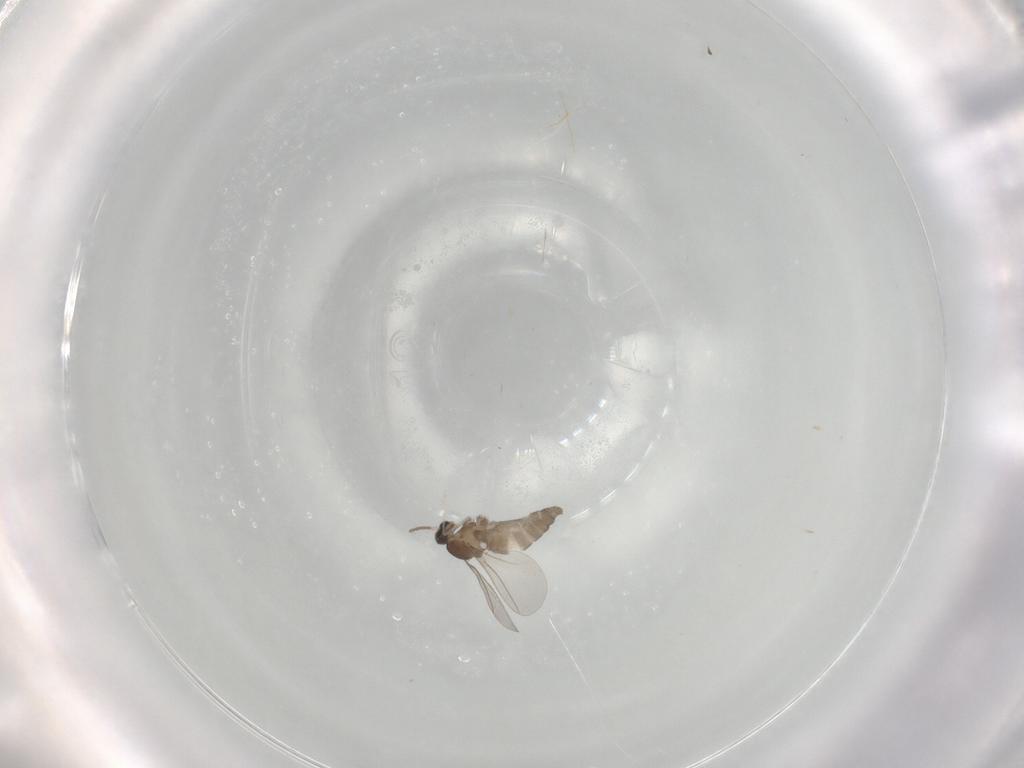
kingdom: Animalia
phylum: Arthropoda
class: Insecta
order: Diptera
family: Cecidomyiidae
